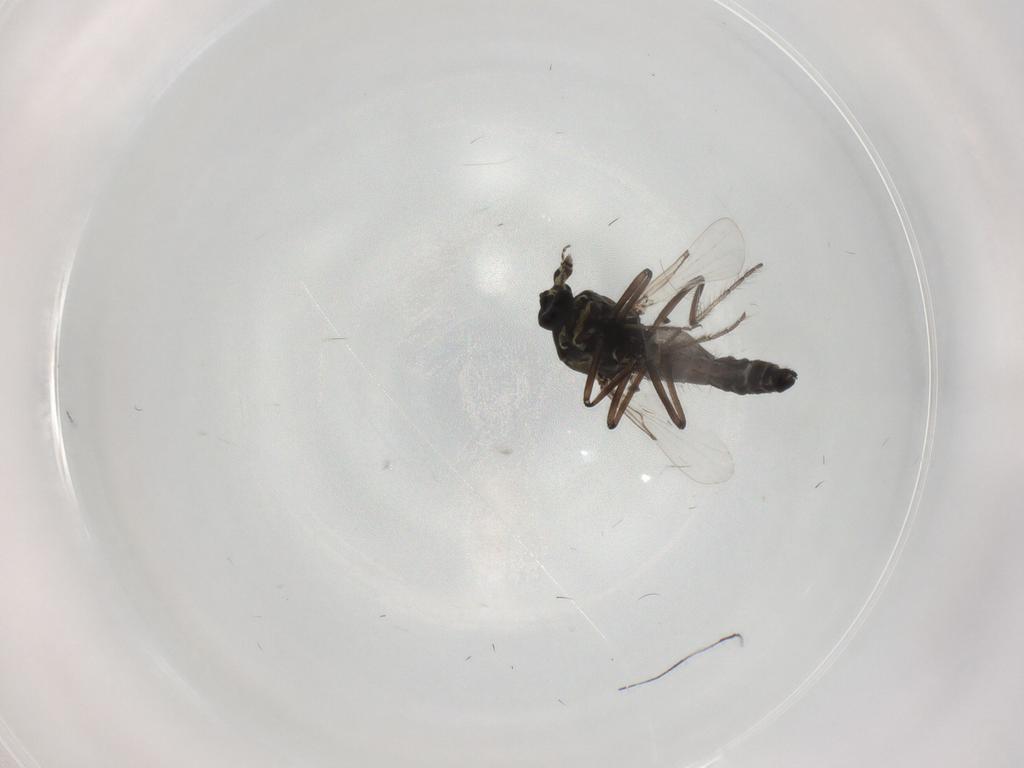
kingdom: Animalia
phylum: Arthropoda
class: Insecta
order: Diptera
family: Ceratopogonidae
